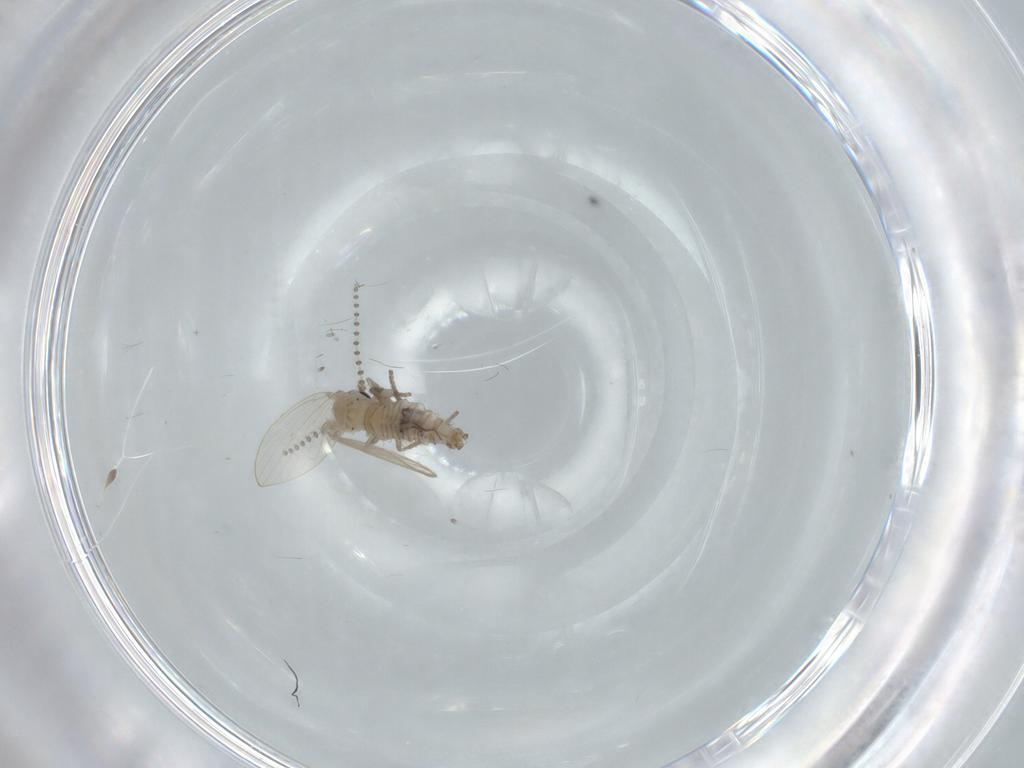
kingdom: Animalia
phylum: Arthropoda
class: Insecta
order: Diptera
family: Psychodidae
